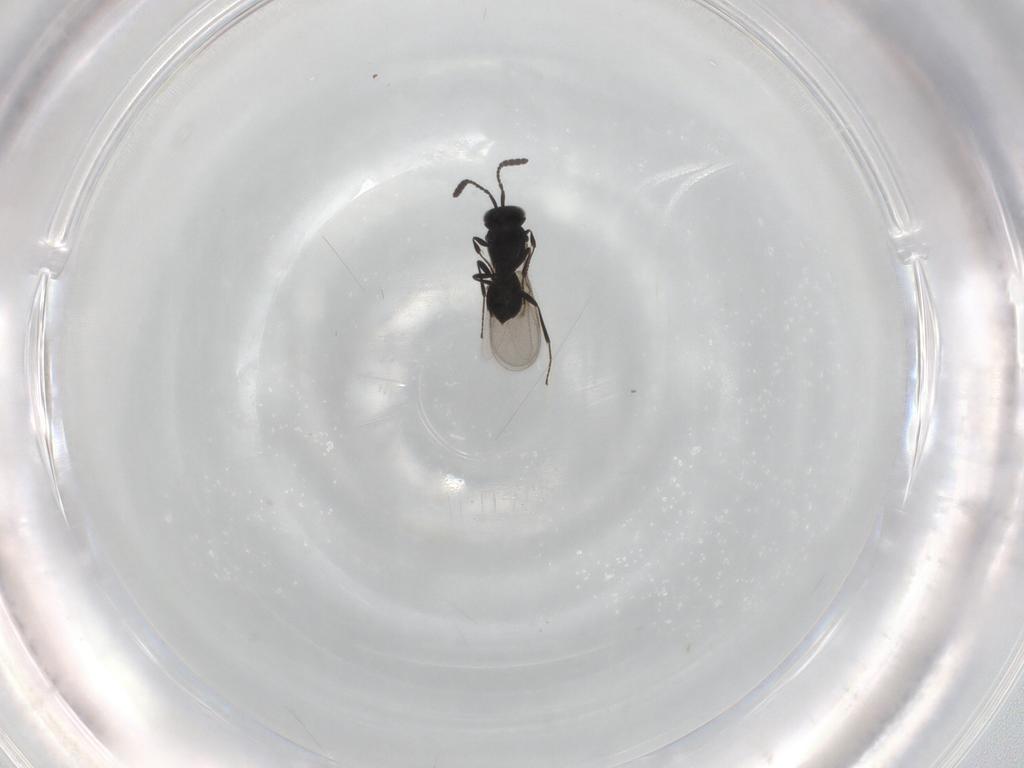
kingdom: Animalia
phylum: Arthropoda
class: Insecta
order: Hymenoptera
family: Scelionidae
